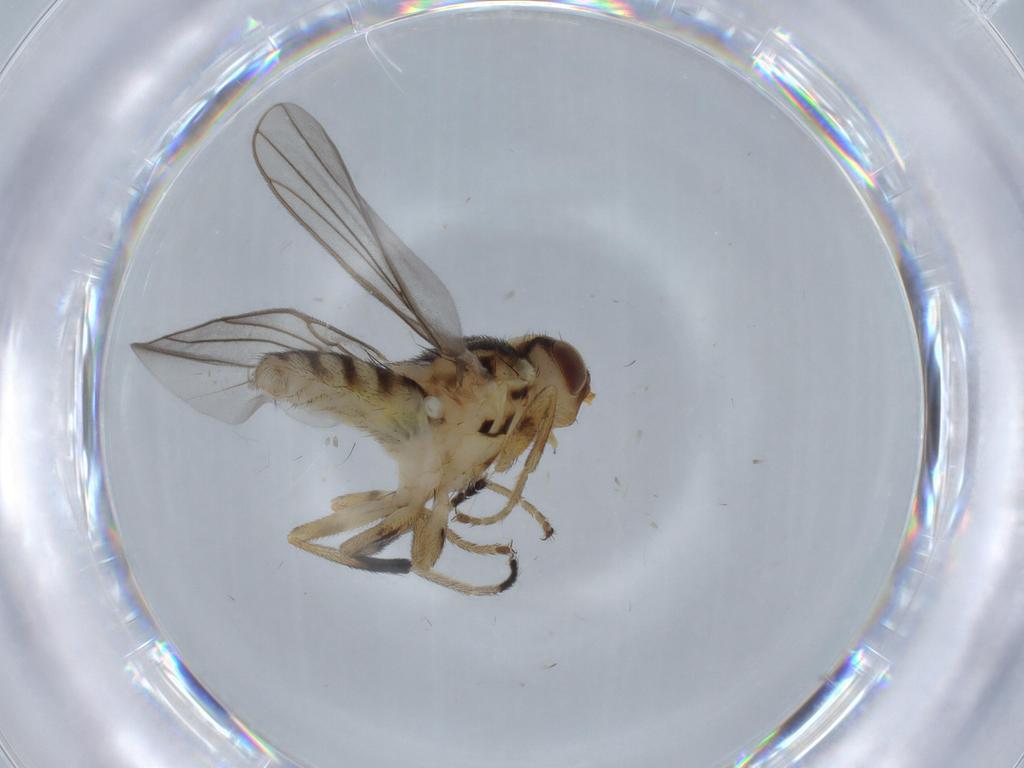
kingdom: Animalia
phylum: Arthropoda
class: Insecta
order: Diptera
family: Chloropidae
